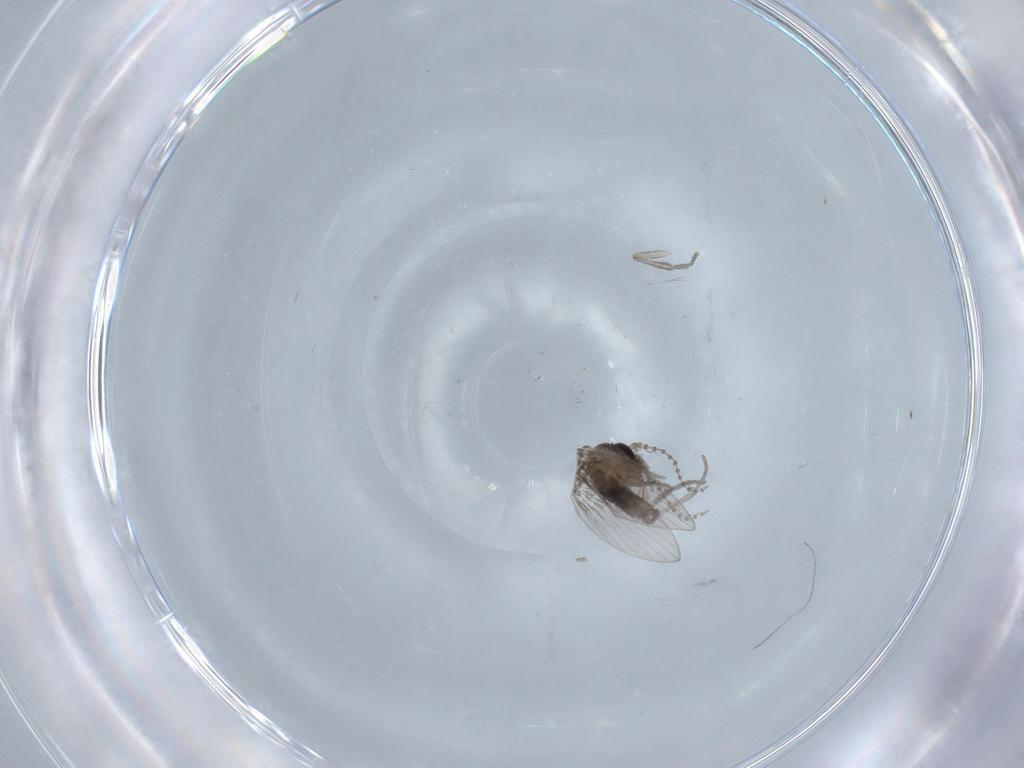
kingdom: Animalia
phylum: Arthropoda
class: Insecta
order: Diptera
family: Psychodidae
